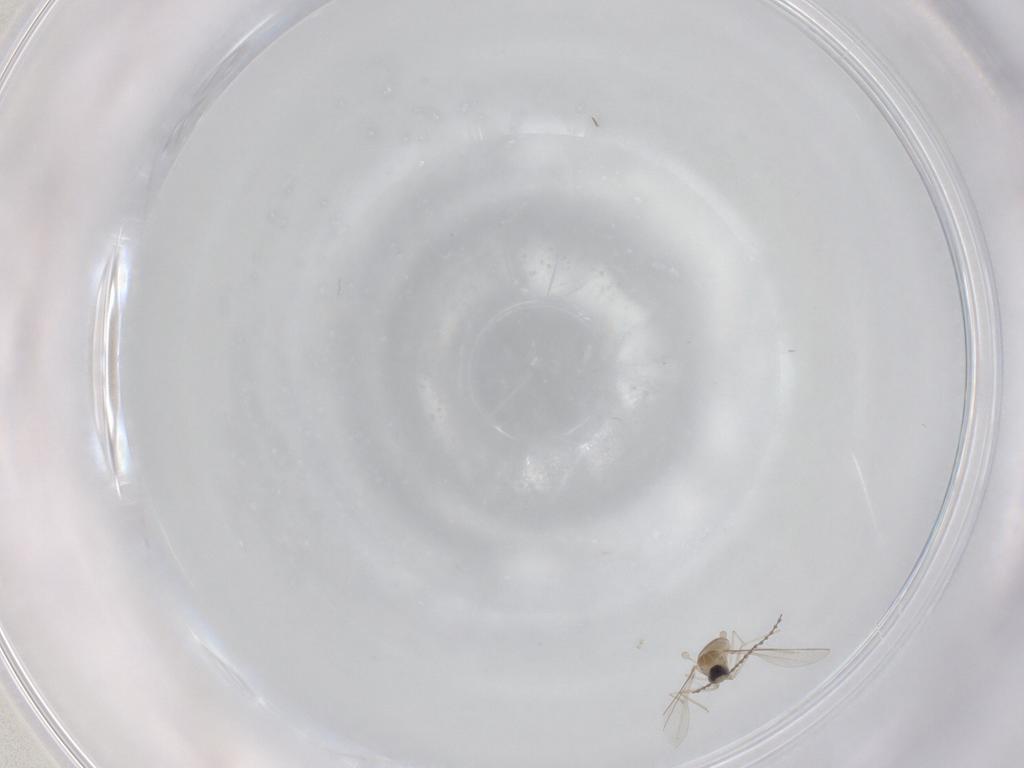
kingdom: Animalia
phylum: Arthropoda
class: Insecta
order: Diptera
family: Cecidomyiidae
